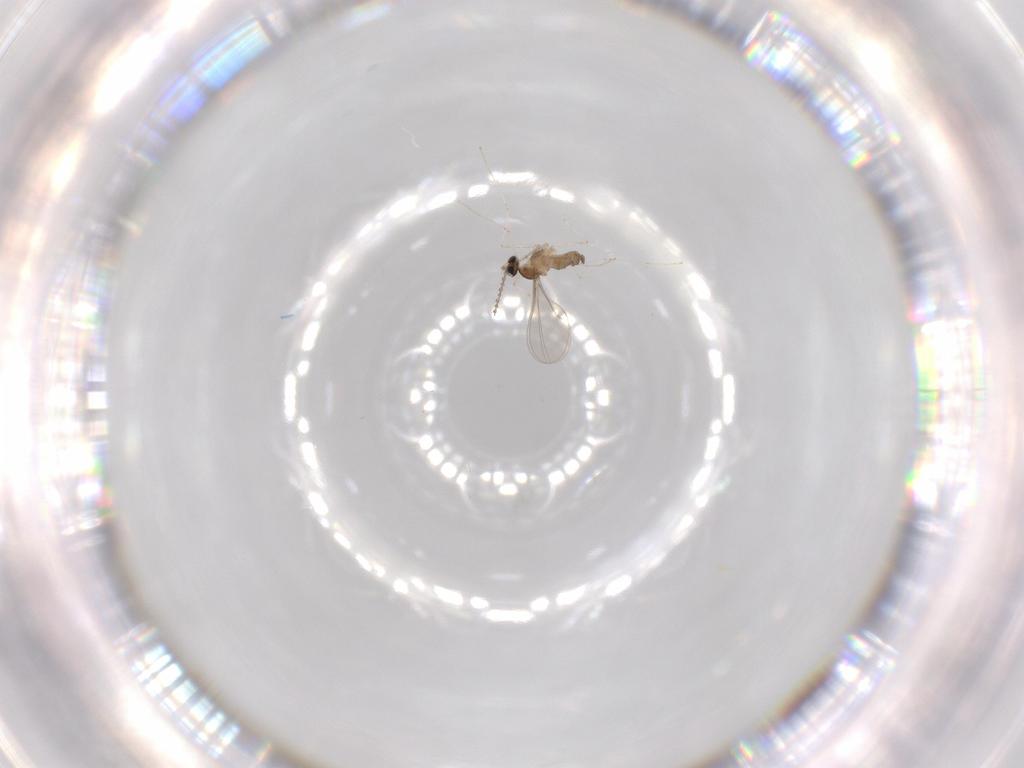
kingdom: Animalia
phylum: Arthropoda
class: Insecta
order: Diptera
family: Cecidomyiidae
